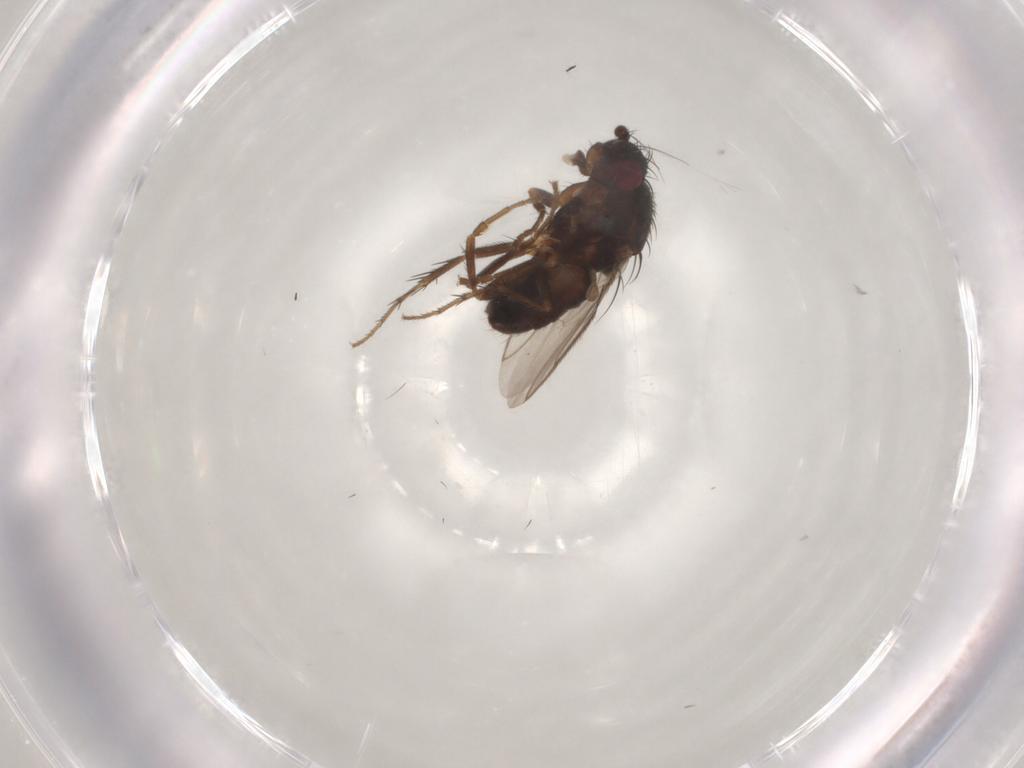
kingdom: Animalia
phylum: Arthropoda
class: Insecta
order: Diptera
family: Sphaeroceridae
